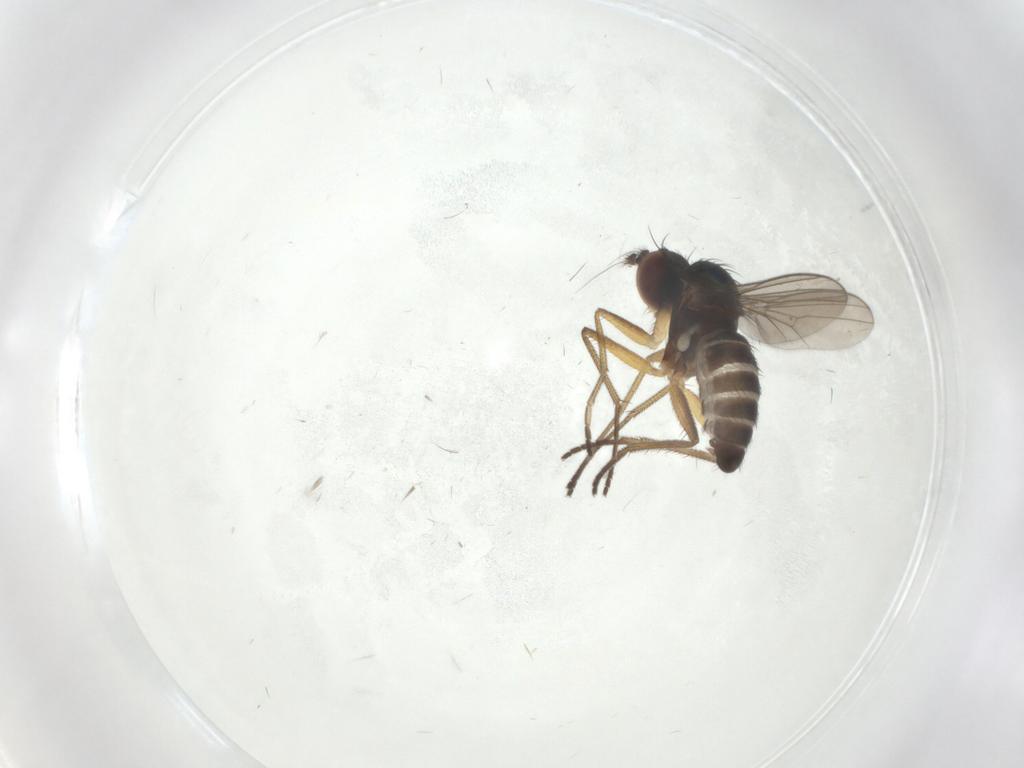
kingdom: Animalia
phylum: Arthropoda
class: Insecta
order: Diptera
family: Dolichopodidae
